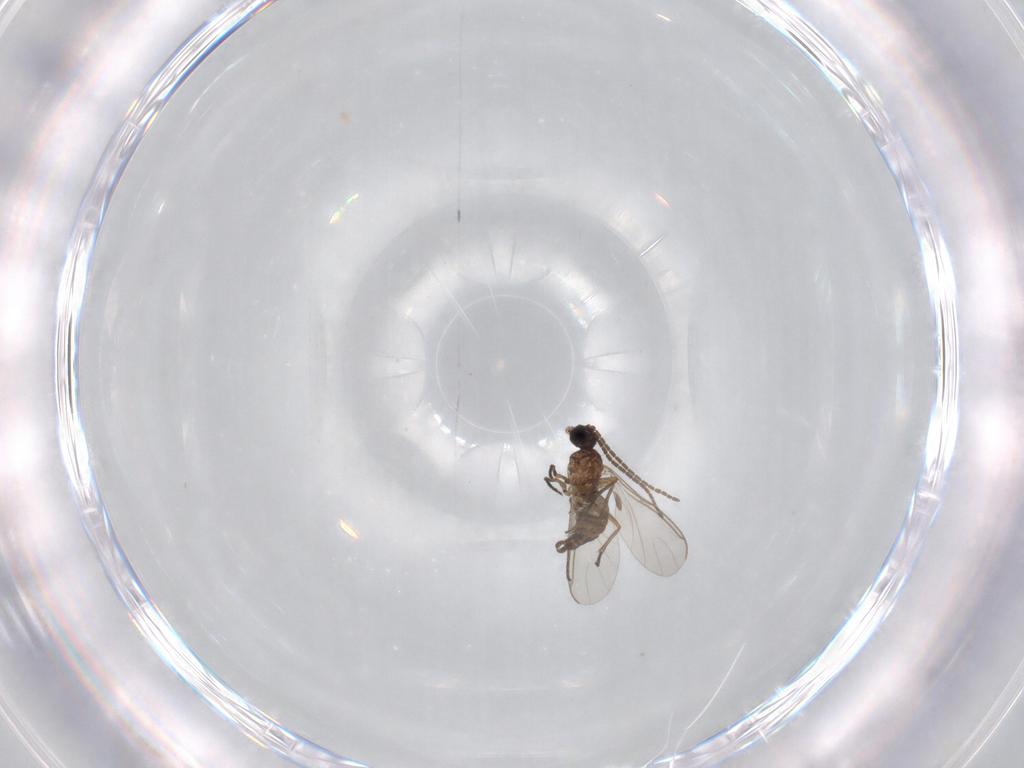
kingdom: Animalia
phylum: Arthropoda
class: Insecta
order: Diptera
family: Sciaridae
